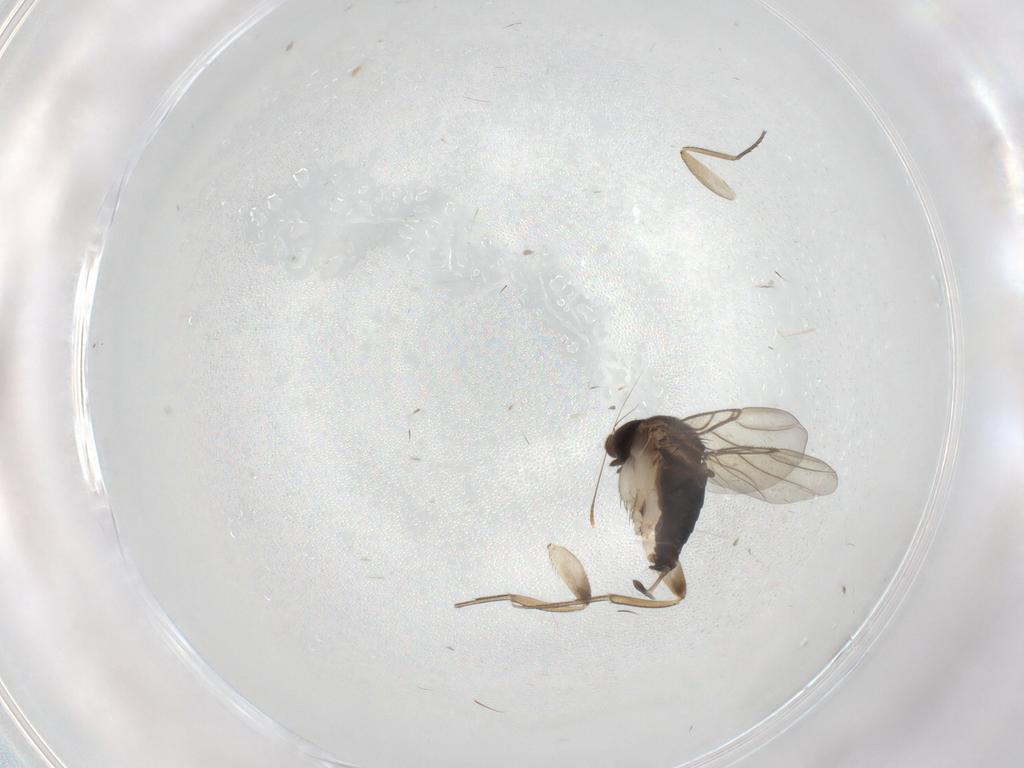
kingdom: Animalia
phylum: Arthropoda
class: Insecta
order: Diptera
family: Phoridae
